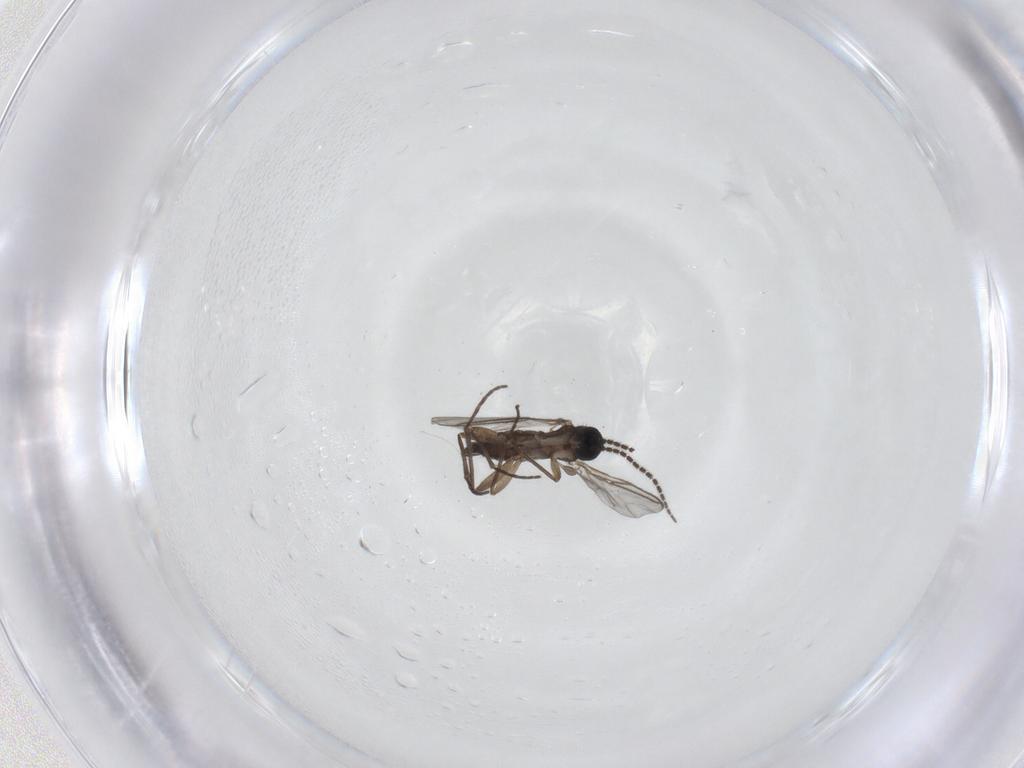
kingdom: Animalia
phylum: Arthropoda
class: Insecta
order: Diptera
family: Sciaridae
